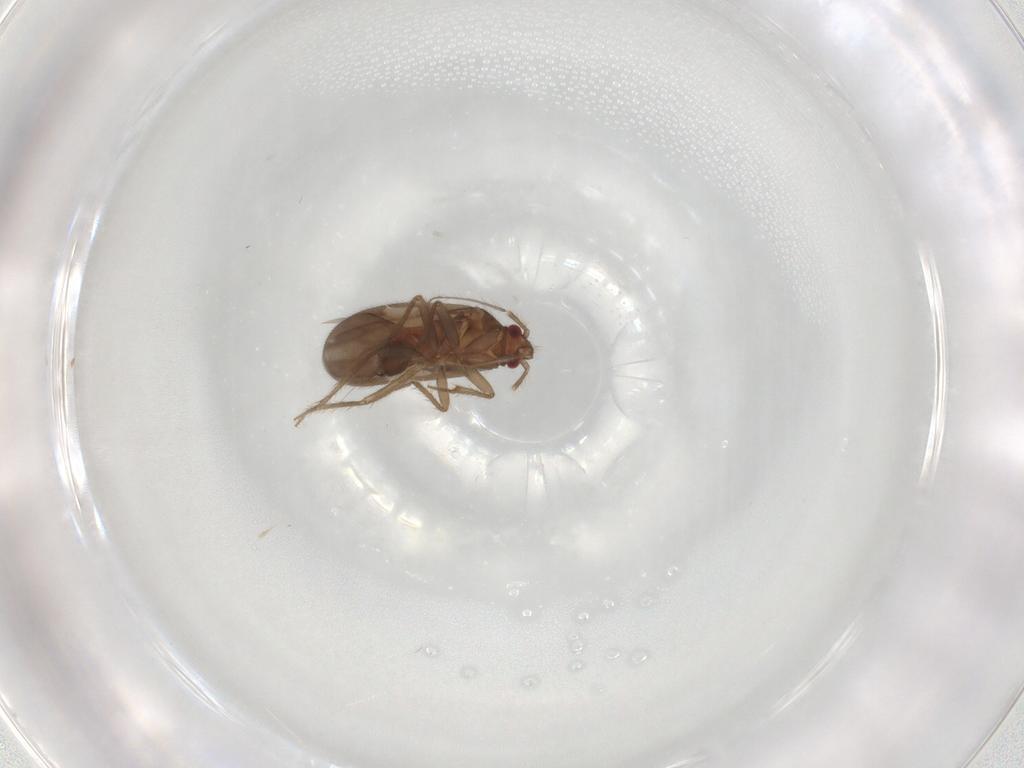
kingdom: Animalia
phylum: Arthropoda
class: Insecta
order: Hemiptera
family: Ceratocombidae
